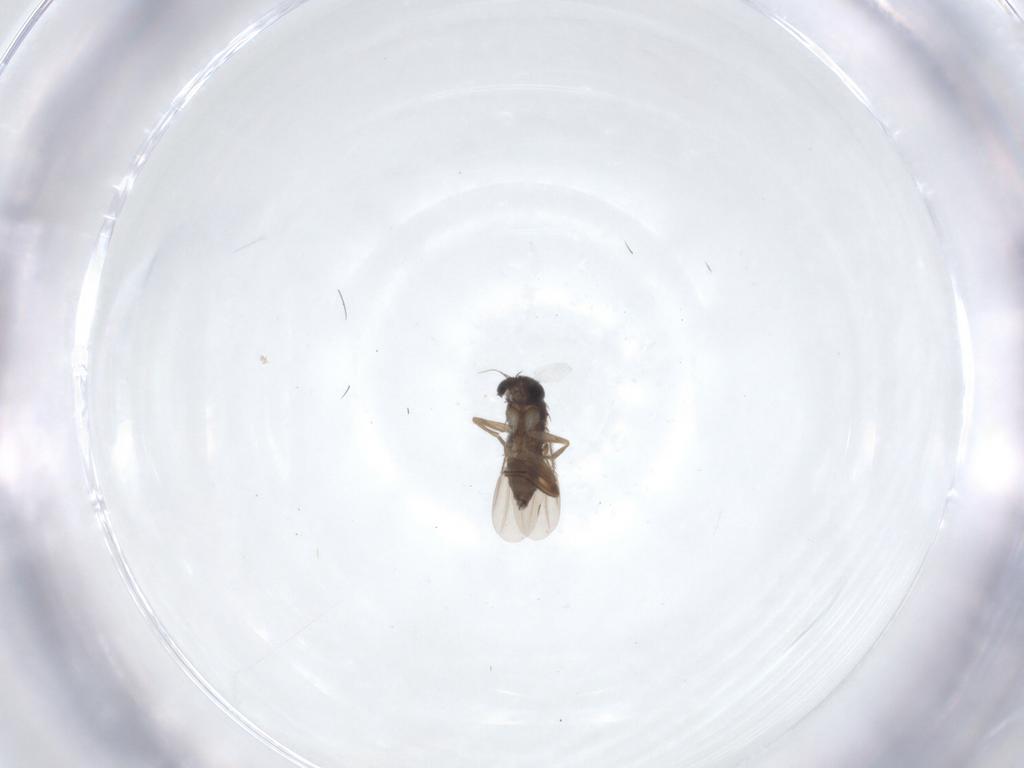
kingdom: Animalia
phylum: Arthropoda
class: Insecta
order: Diptera
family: Phoridae
